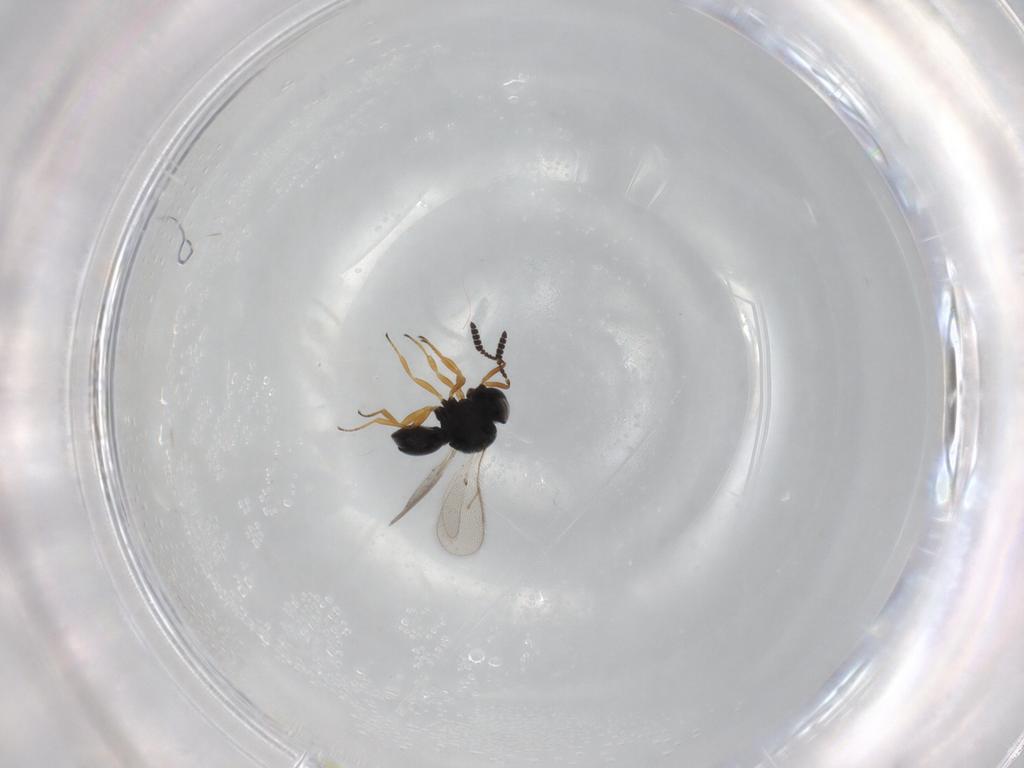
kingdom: Animalia
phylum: Arthropoda
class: Insecta
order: Hymenoptera
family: Scelionidae
